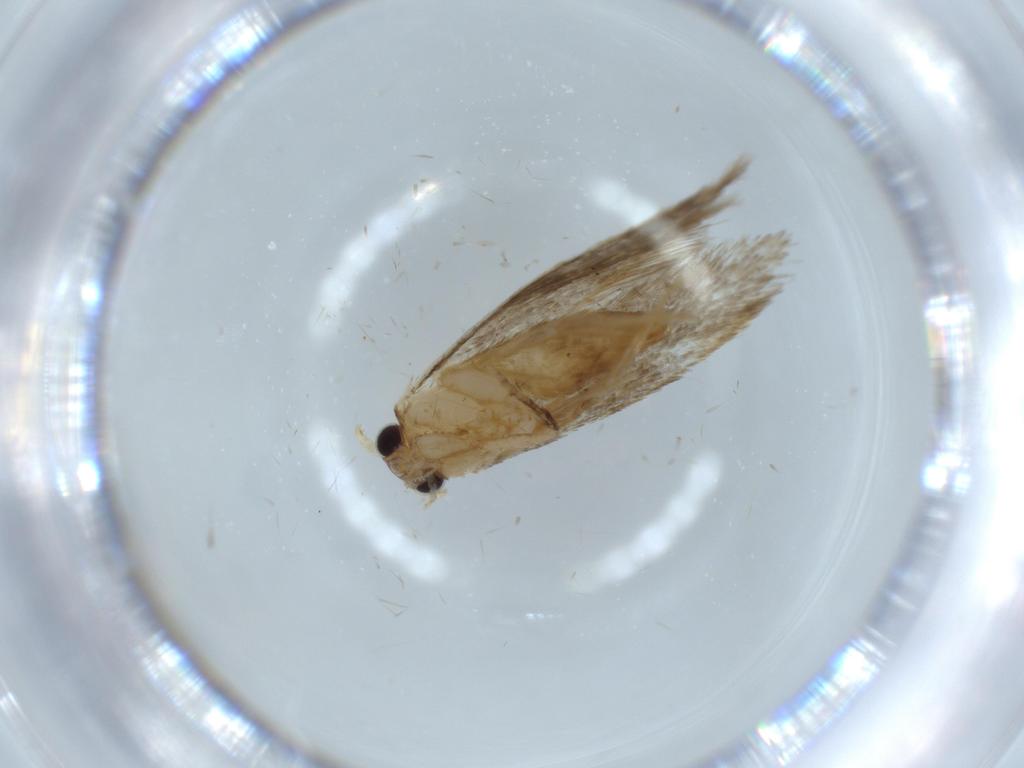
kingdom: Animalia
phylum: Arthropoda
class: Insecta
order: Lepidoptera
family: Tineidae
